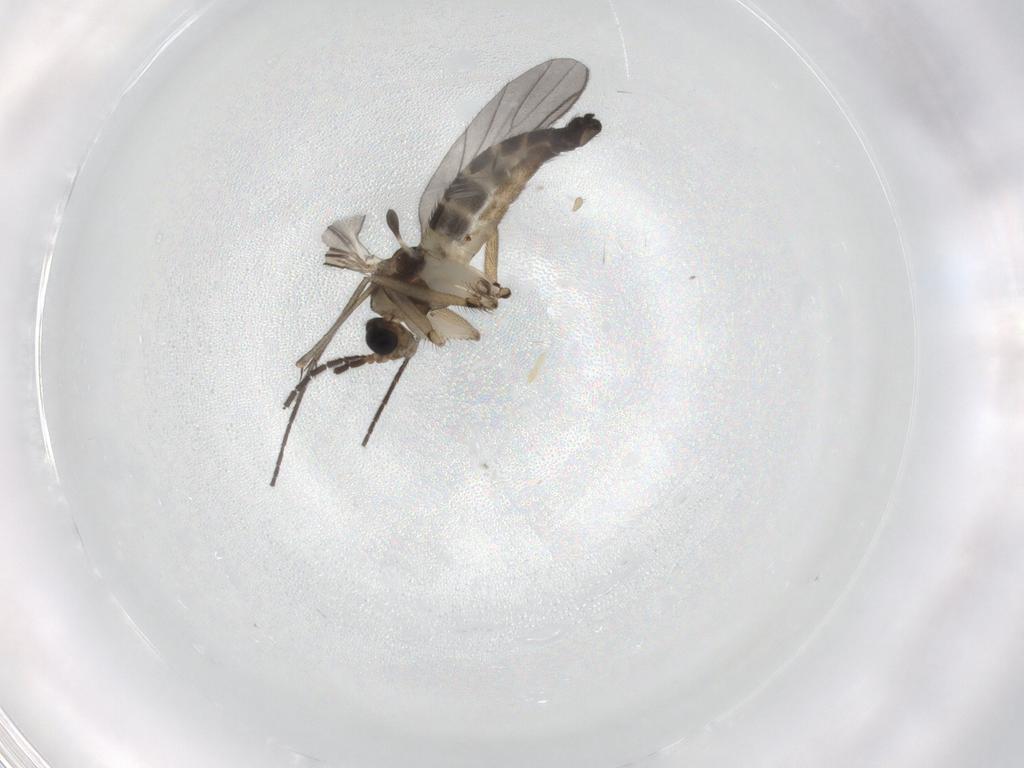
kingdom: Animalia
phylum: Arthropoda
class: Insecta
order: Diptera
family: Sciaridae
